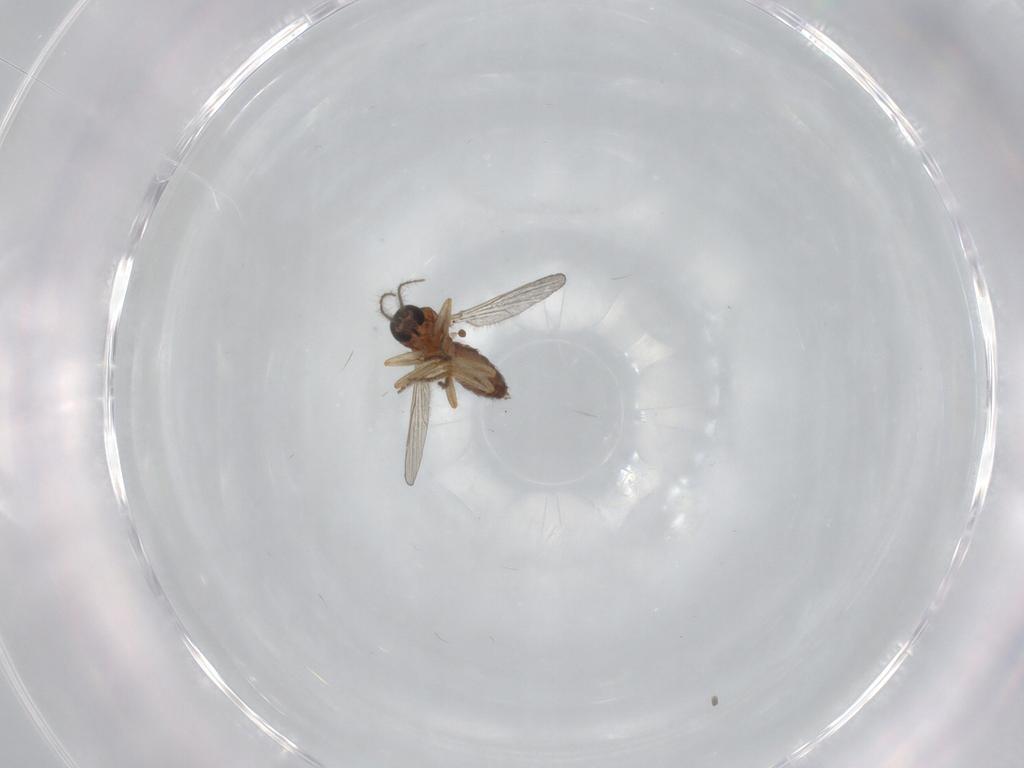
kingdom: Animalia
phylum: Arthropoda
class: Insecta
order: Diptera
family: Ceratopogonidae
